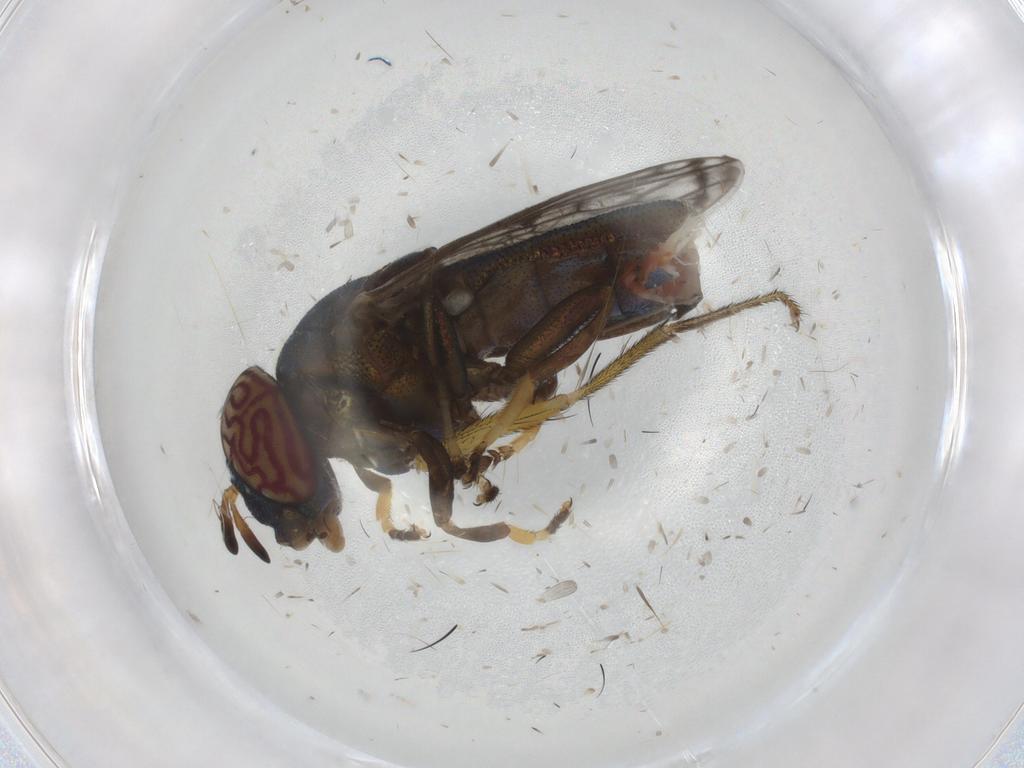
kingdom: Animalia
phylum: Arthropoda
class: Insecta
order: Diptera
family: Syrphidae
